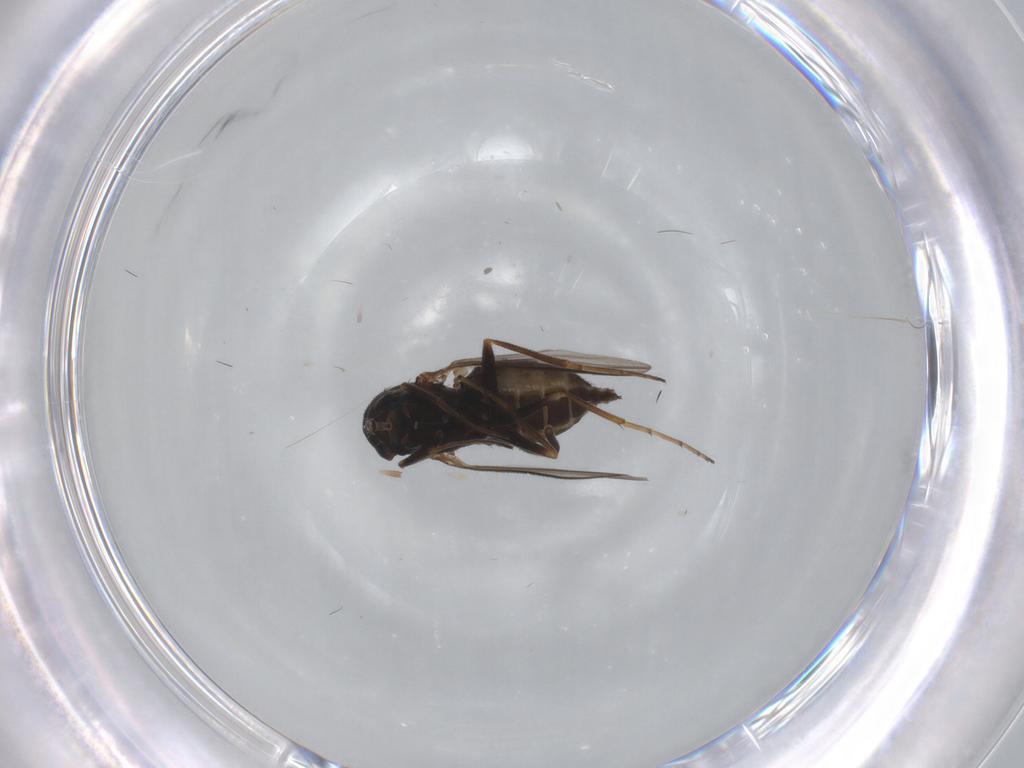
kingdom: Animalia
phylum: Arthropoda
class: Insecta
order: Diptera
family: Dolichopodidae
